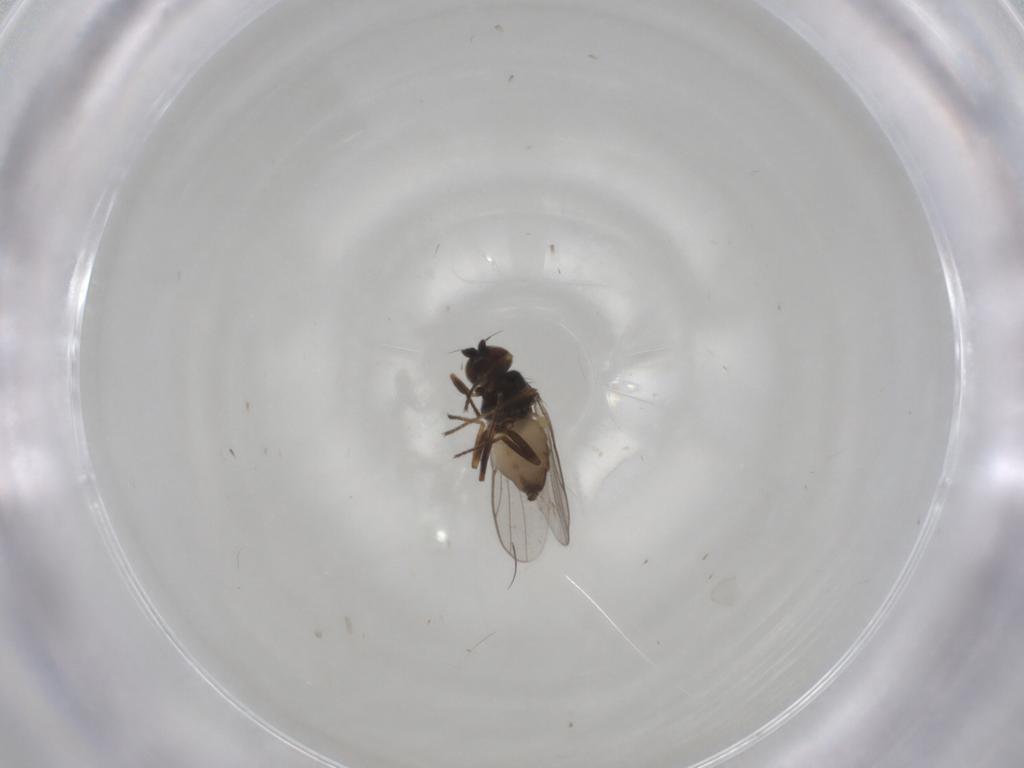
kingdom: Animalia
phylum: Arthropoda
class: Insecta
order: Diptera
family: Chloropidae
